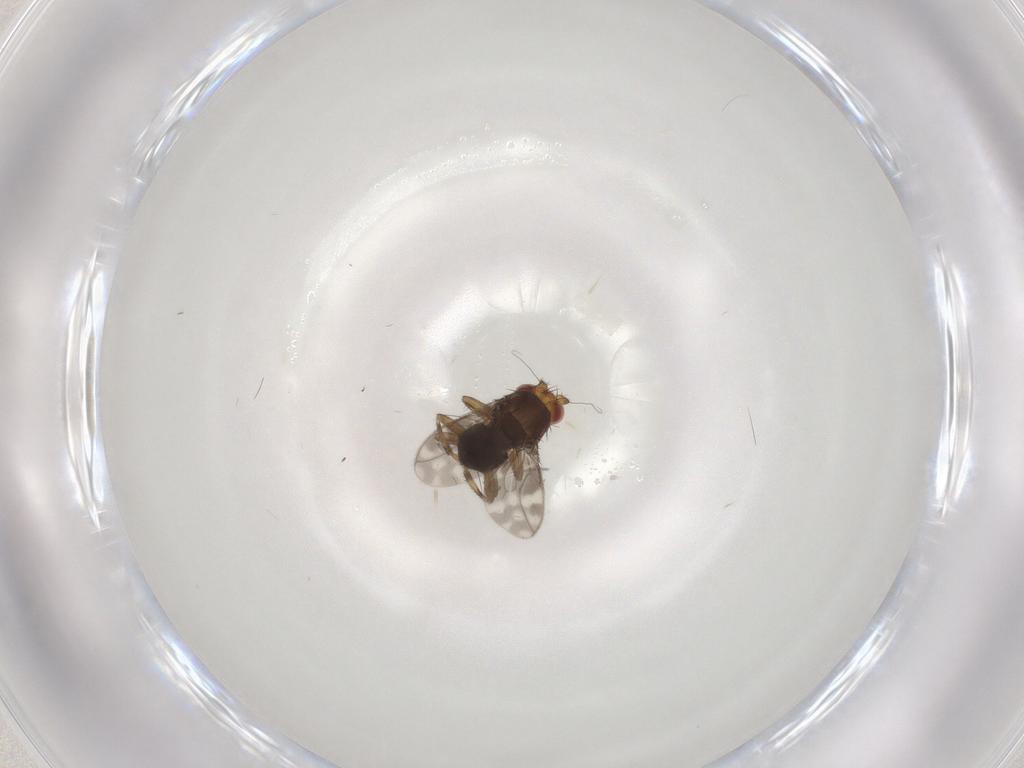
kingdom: Animalia
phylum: Arthropoda
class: Insecta
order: Diptera
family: Sphaeroceridae
